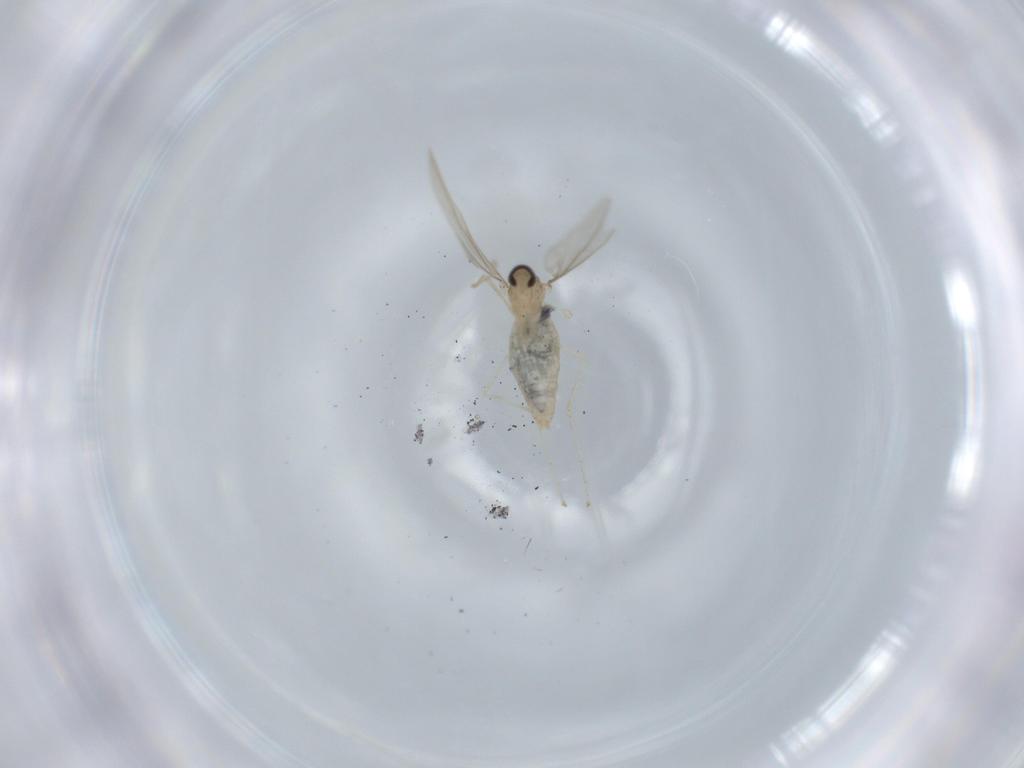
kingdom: Animalia
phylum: Arthropoda
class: Insecta
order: Diptera
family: Cecidomyiidae
